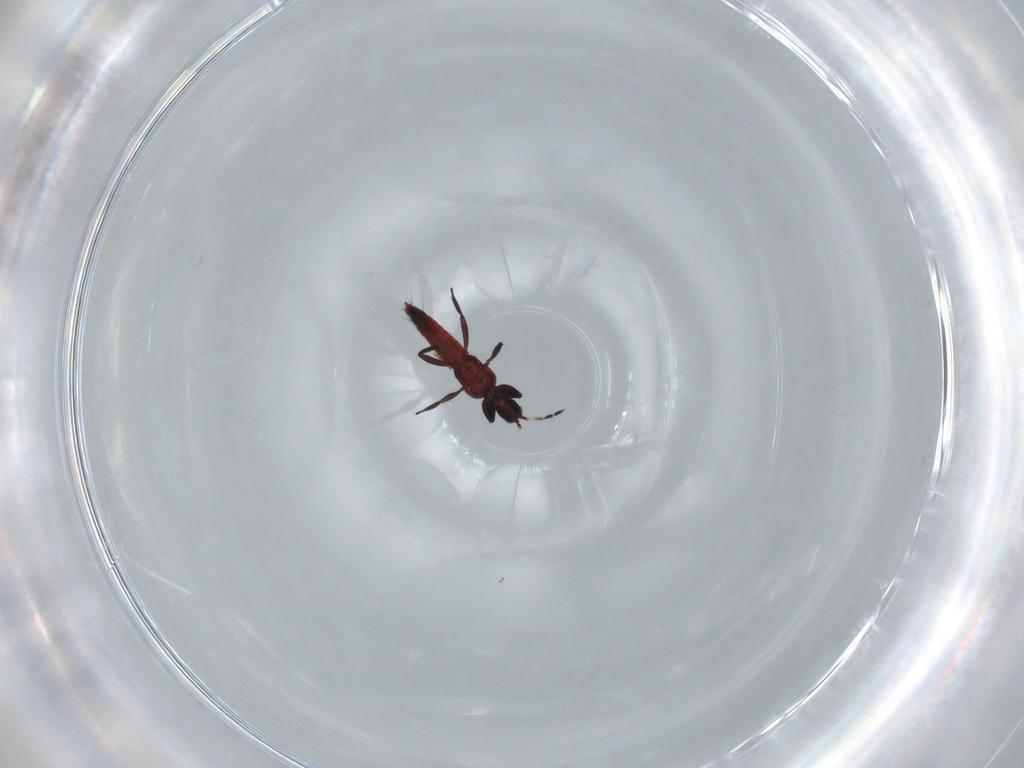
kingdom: Animalia
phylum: Arthropoda
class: Insecta
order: Thysanoptera
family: Aeolothripidae
